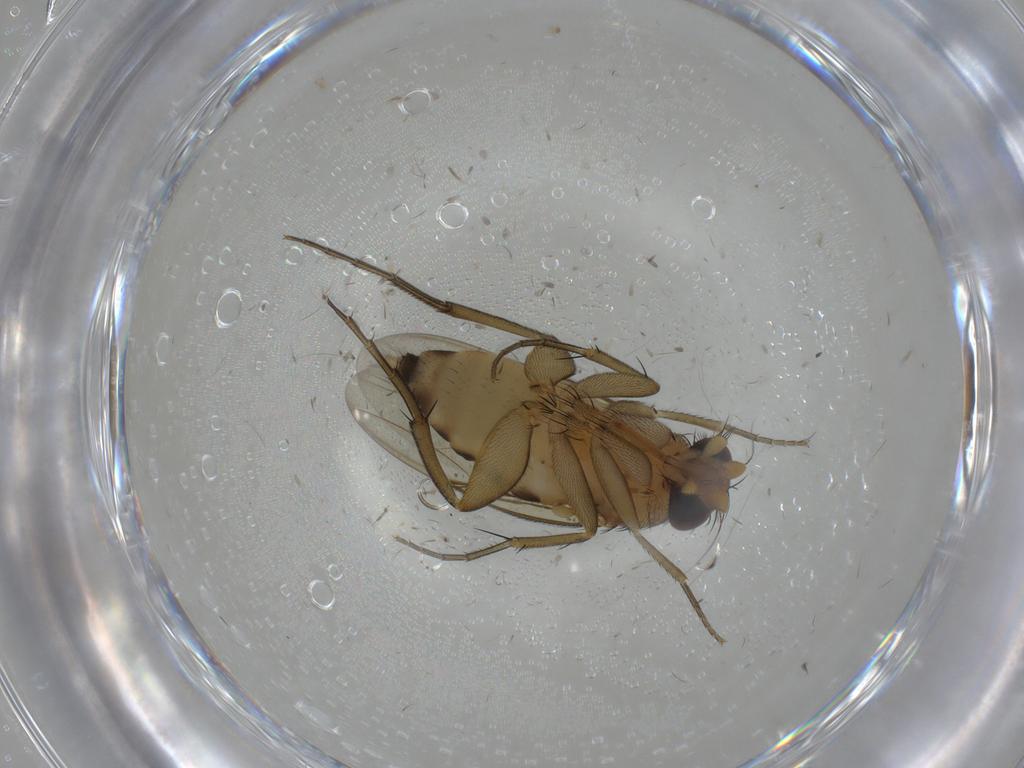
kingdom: Animalia
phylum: Arthropoda
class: Insecta
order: Diptera
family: Phoridae
